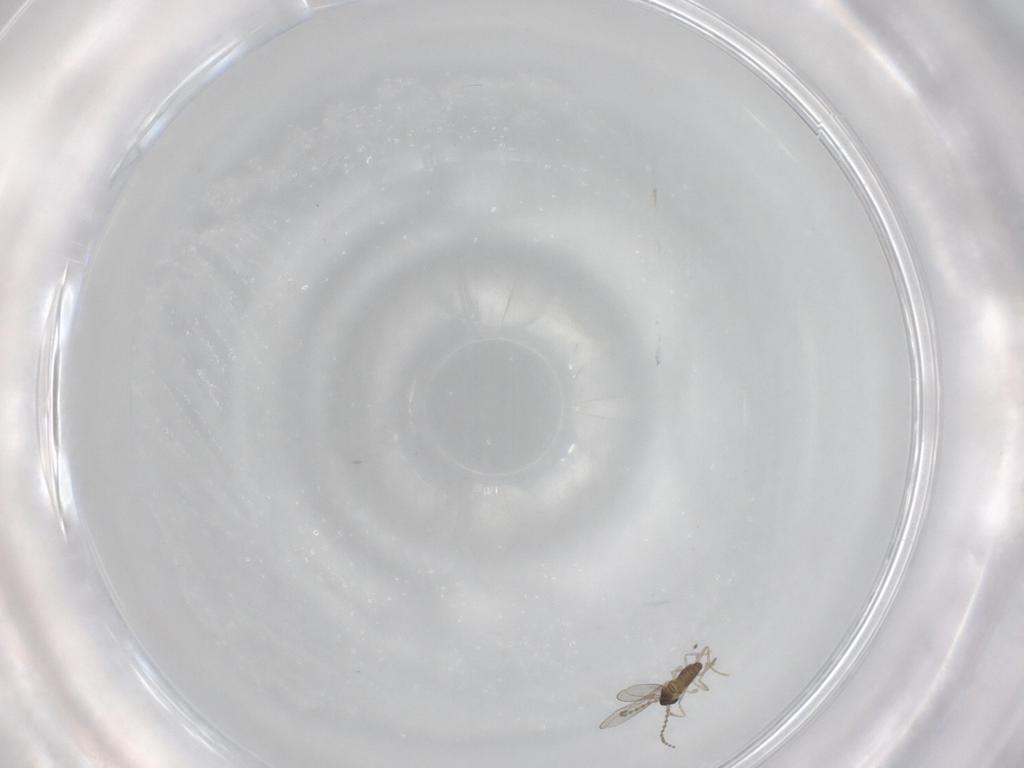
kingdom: Animalia
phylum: Arthropoda
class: Insecta
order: Diptera
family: Cecidomyiidae
